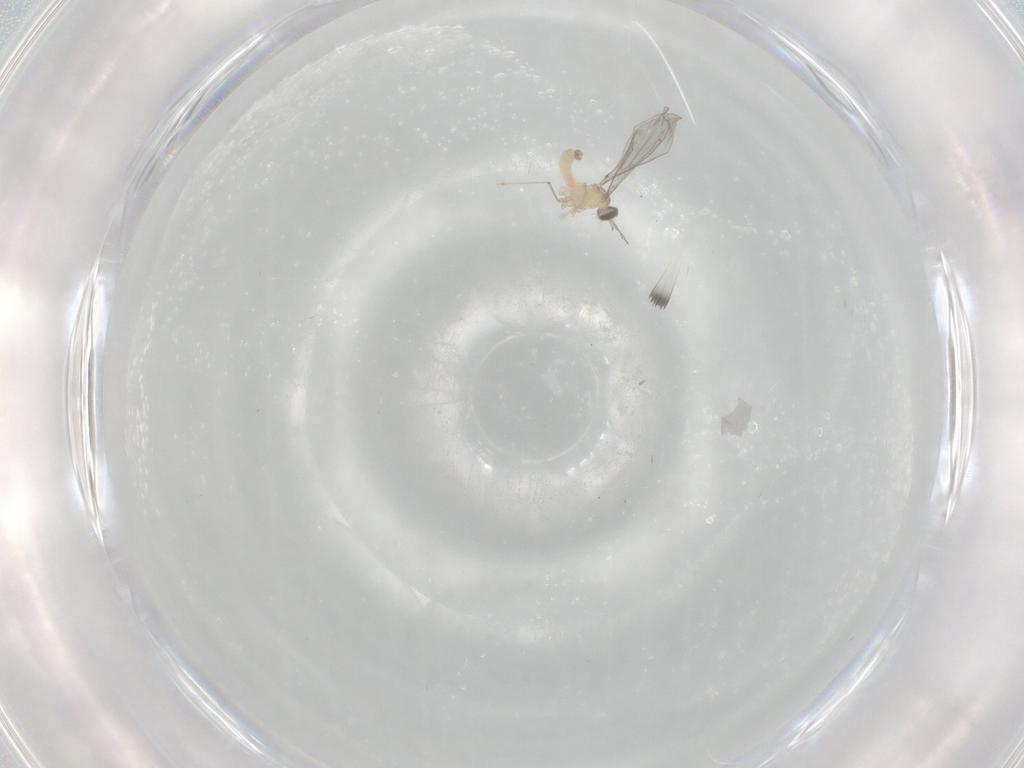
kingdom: Animalia
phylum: Arthropoda
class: Insecta
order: Diptera
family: Cecidomyiidae
